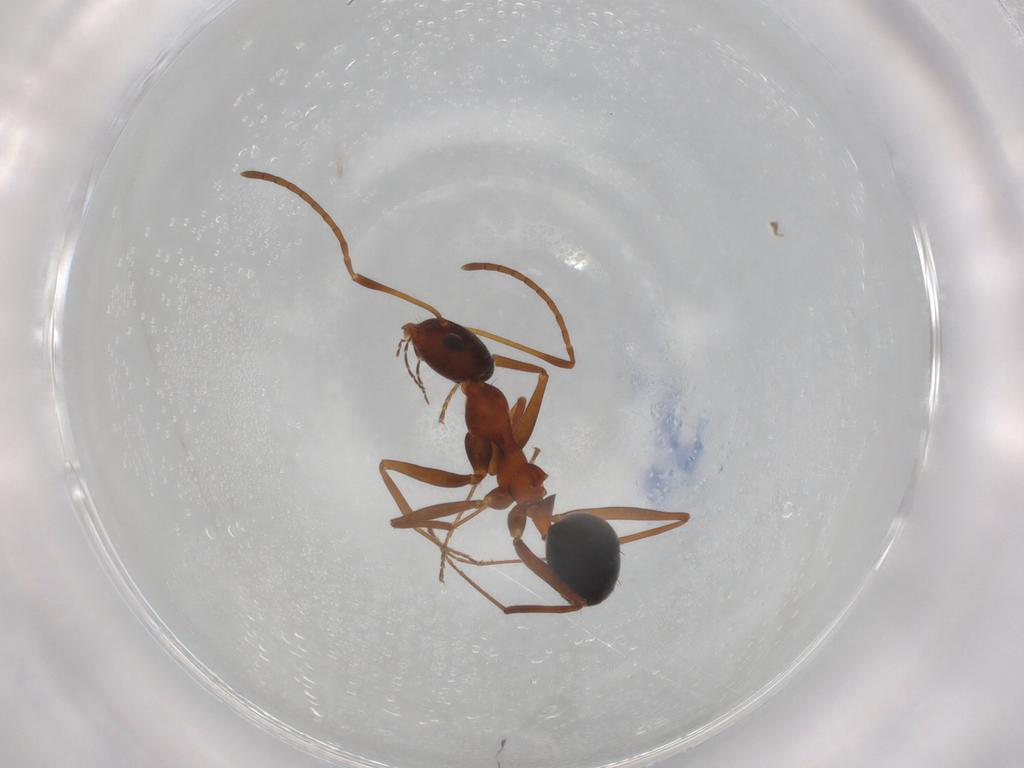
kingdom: Animalia
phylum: Arthropoda
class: Insecta
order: Hymenoptera
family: Formicidae
